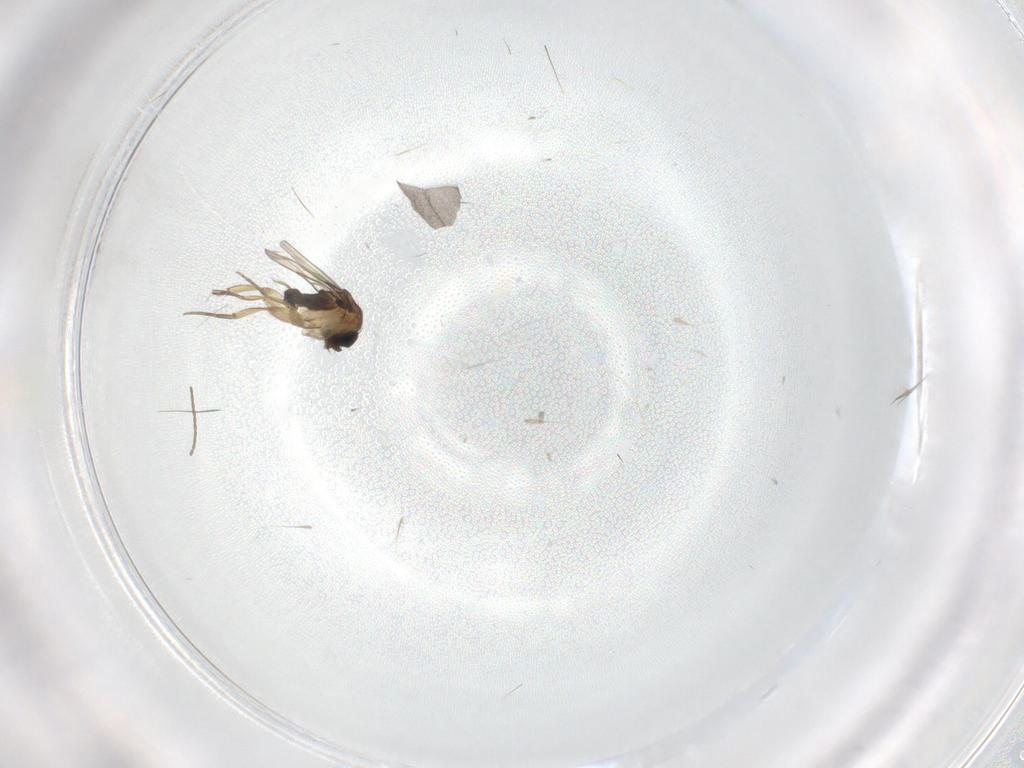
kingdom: Animalia
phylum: Arthropoda
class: Insecta
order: Diptera
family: Phoridae
